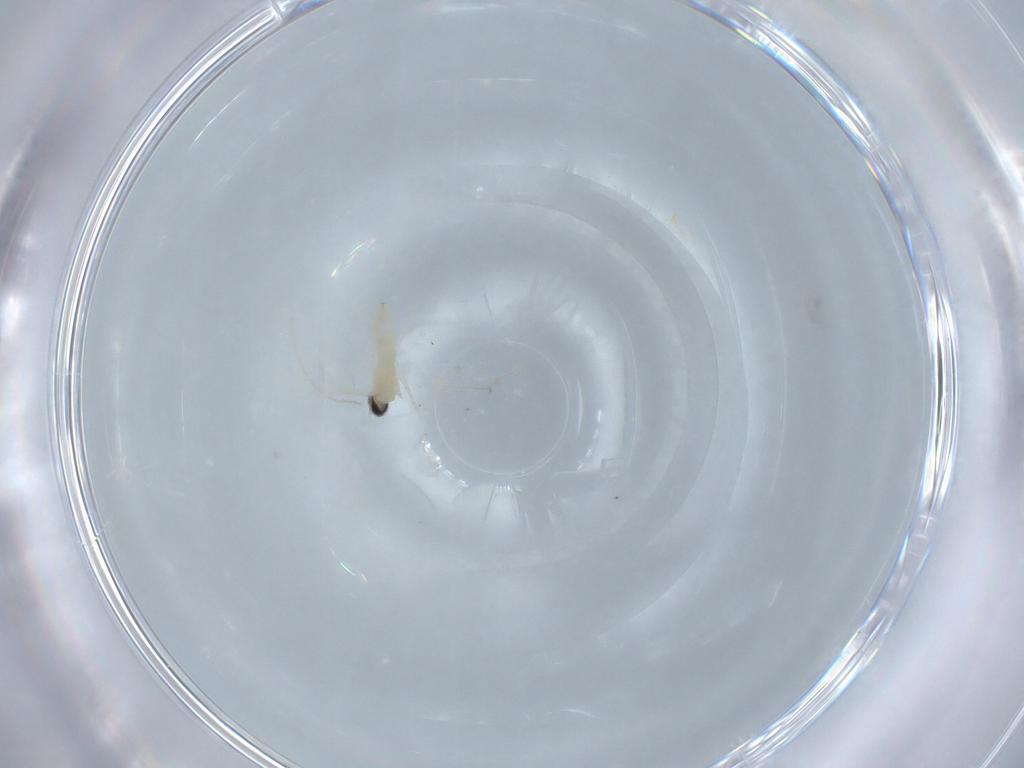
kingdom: Animalia
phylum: Arthropoda
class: Insecta
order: Diptera
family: Cecidomyiidae
